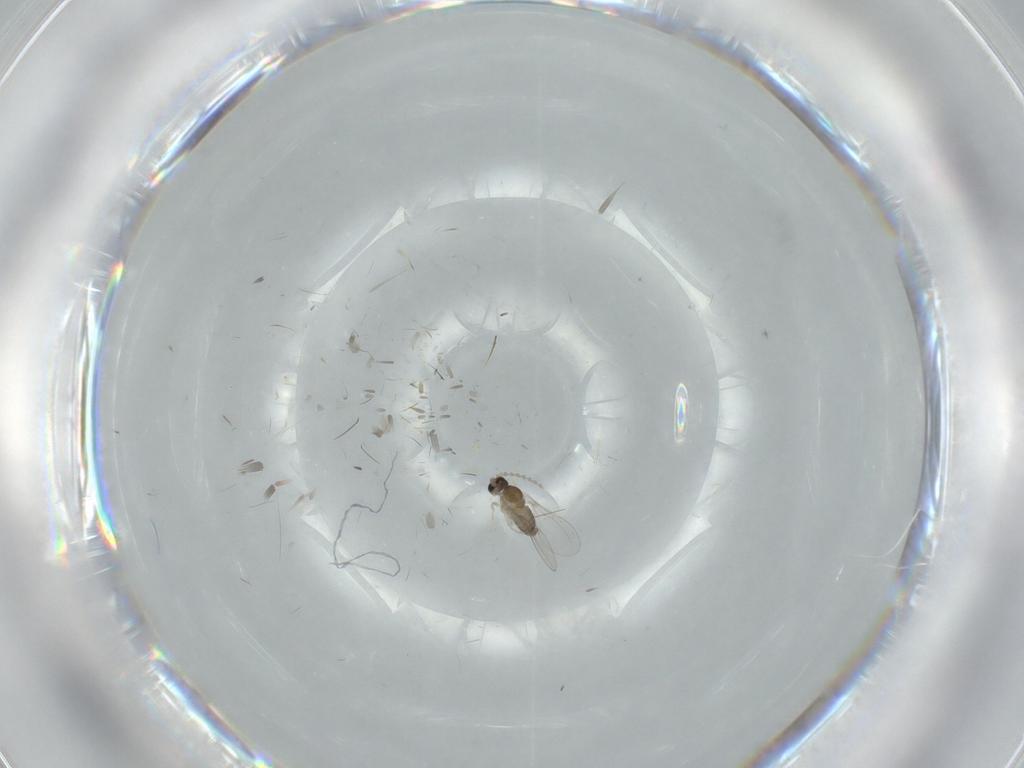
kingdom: Animalia
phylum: Arthropoda
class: Insecta
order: Diptera
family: Cecidomyiidae
